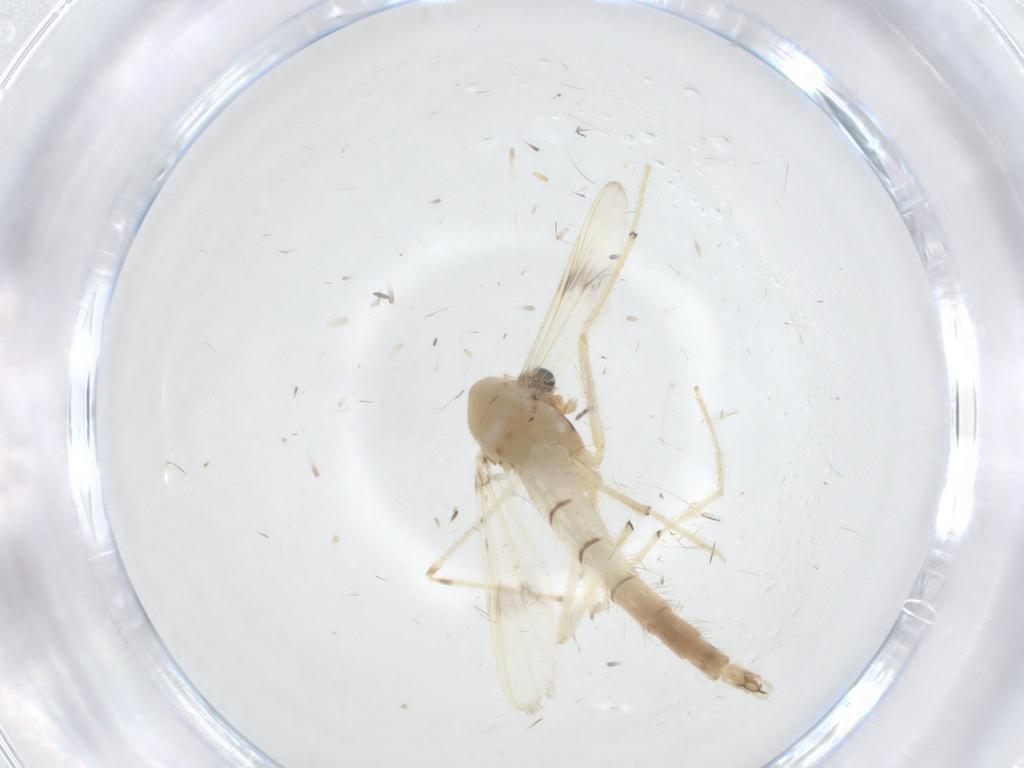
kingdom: Animalia
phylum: Arthropoda
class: Insecta
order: Diptera
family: Chironomidae
